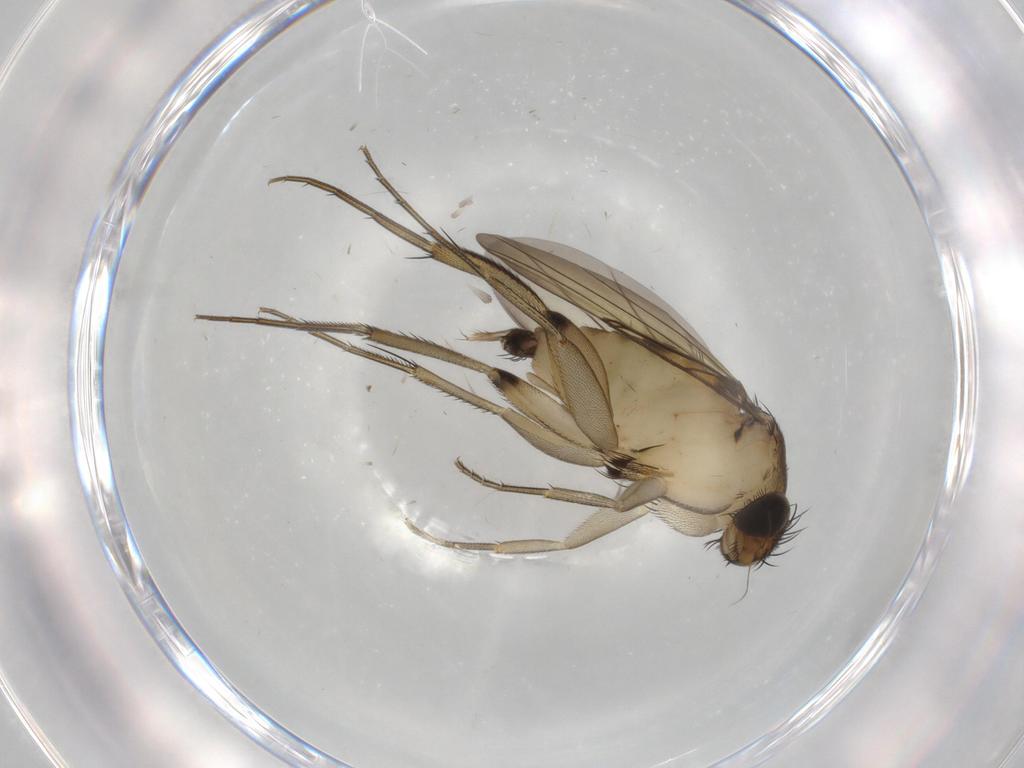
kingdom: Animalia
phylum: Arthropoda
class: Insecta
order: Diptera
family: Phoridae
